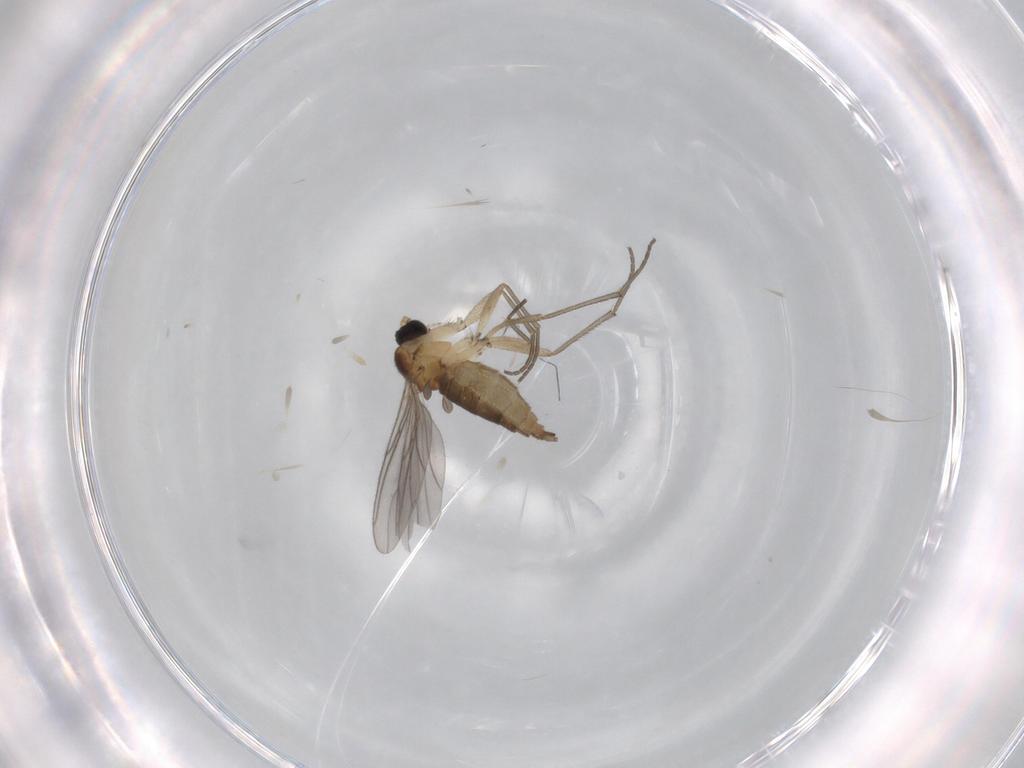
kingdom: Animalia
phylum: Arthropoda
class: Insecta
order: Diptera
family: Sciaridae
